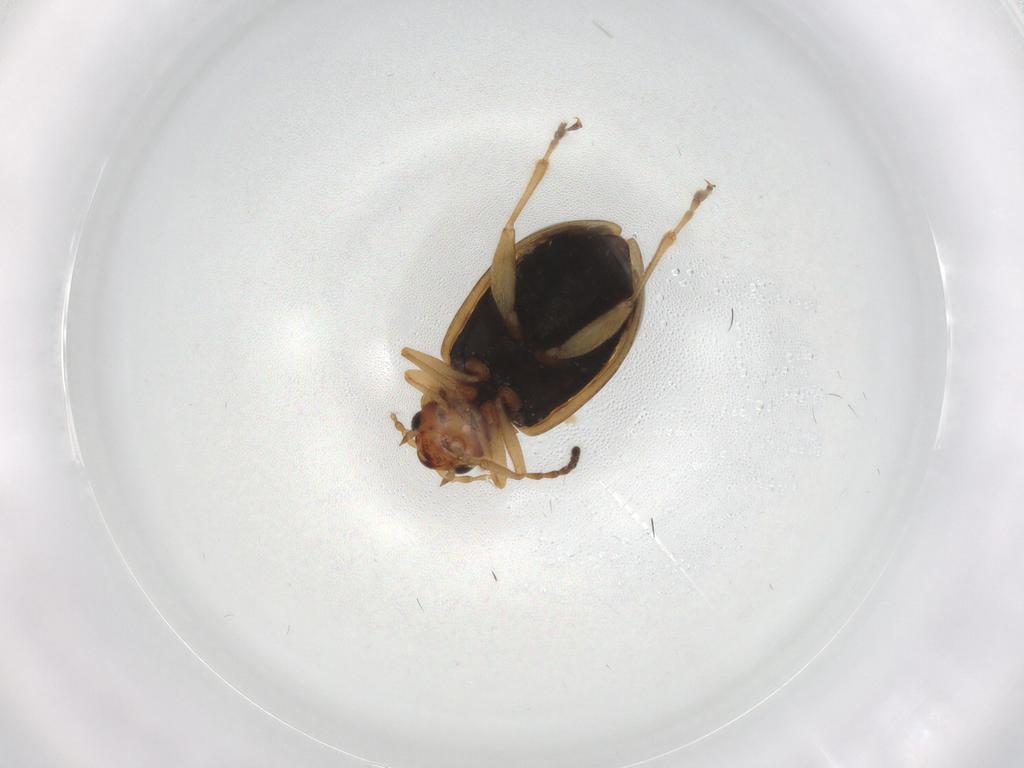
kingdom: Animalia
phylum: Arthropoda
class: Insecta
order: Coleoptera
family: Chrysomelidae
